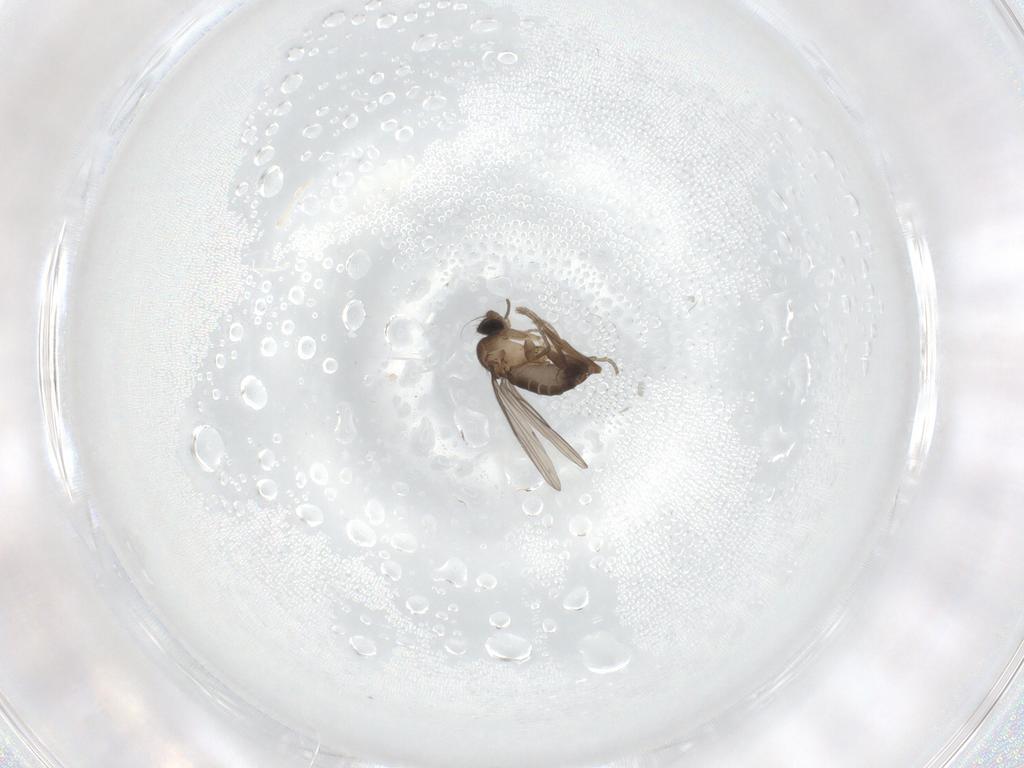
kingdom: Animalia
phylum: Arthropoda
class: Insecta
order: Diptera
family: Phoridae
